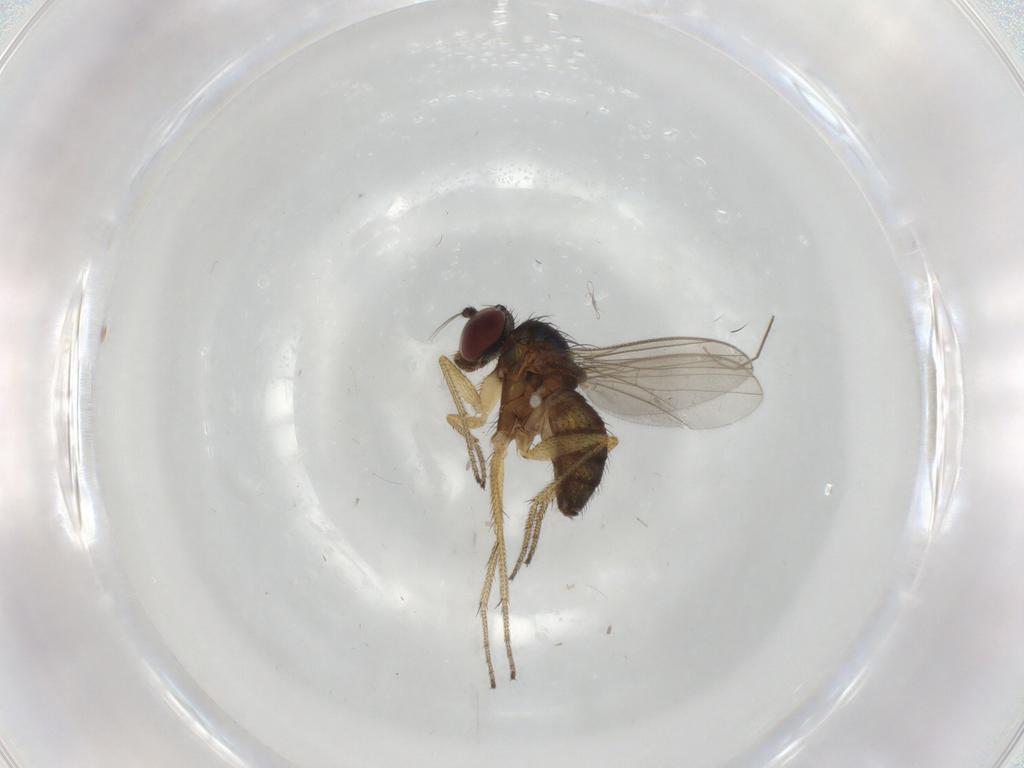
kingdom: Animalia
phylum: Arthropoda
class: Insecta
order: Diptera
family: Dolichopodidae
